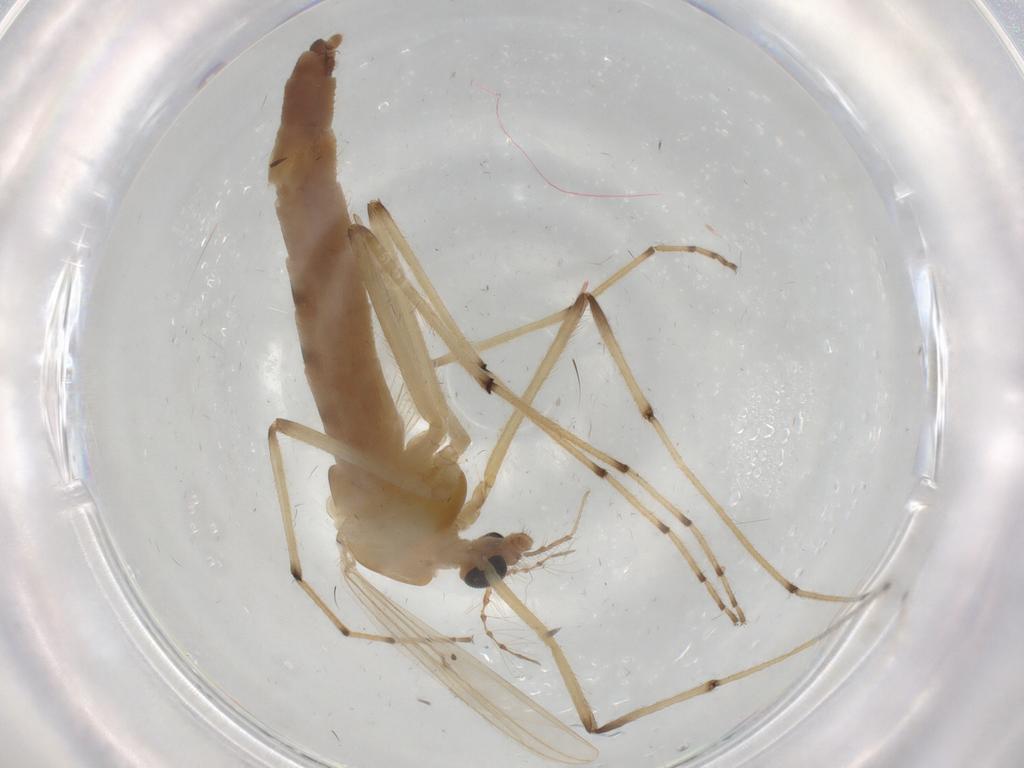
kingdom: Animalia
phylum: Arthropoda
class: Insecta
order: Diptera
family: Chironomidae
